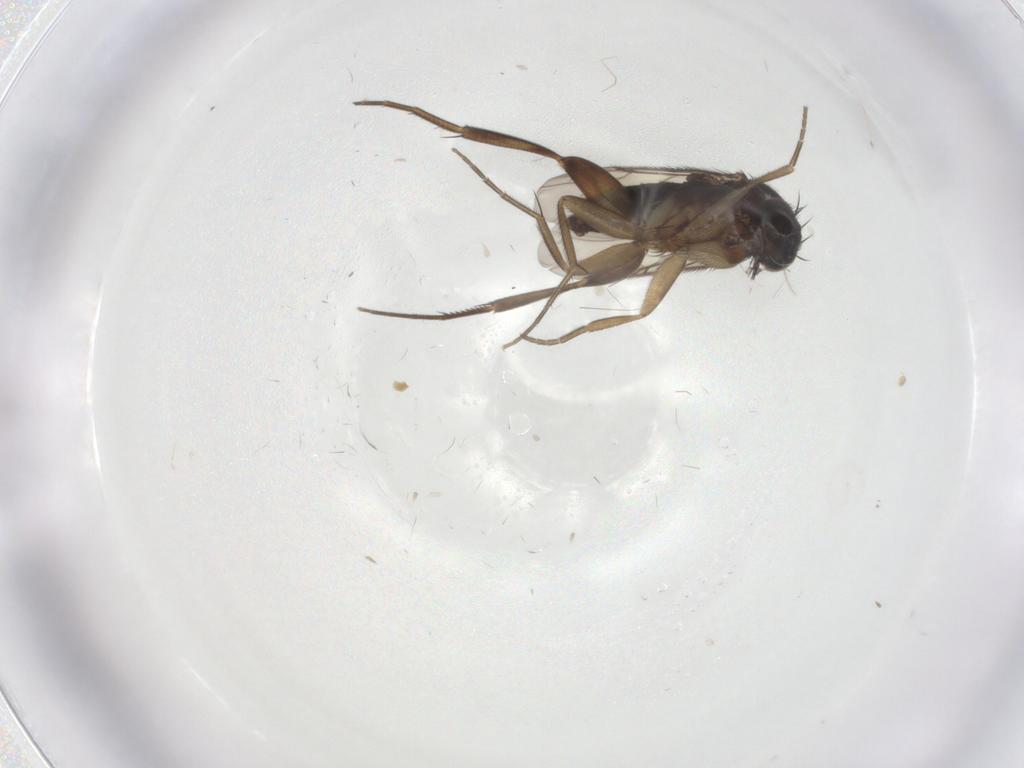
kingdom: Animalia
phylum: Arthropoda
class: Insecta
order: Diptera
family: Phoridae
